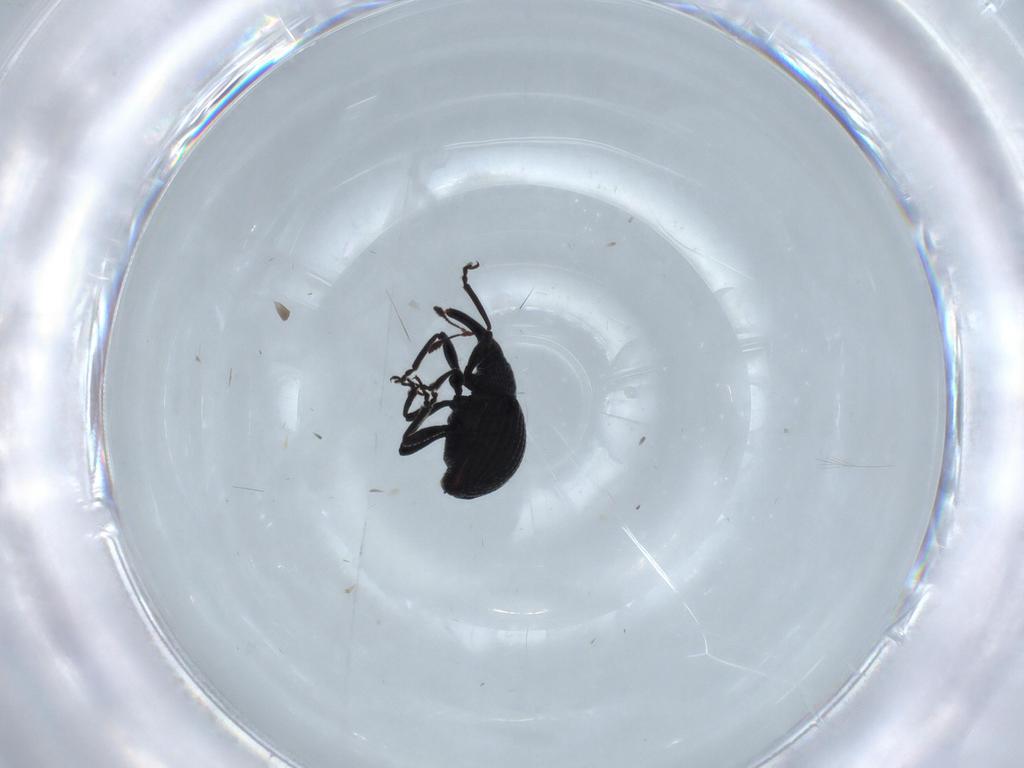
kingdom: Animalia
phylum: Arthropoda
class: Insecta
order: Coleoptera
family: Brentidae
